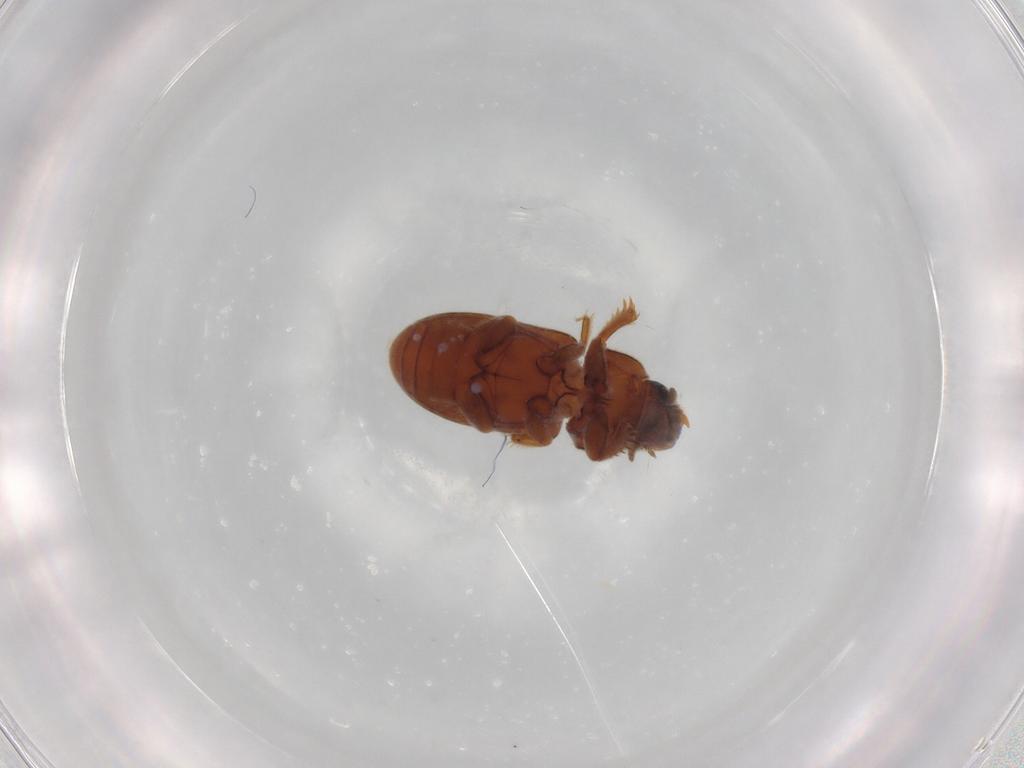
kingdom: Animalia
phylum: Arthropoda
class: Insecta
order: Coleoptera
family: Heteroceridae
